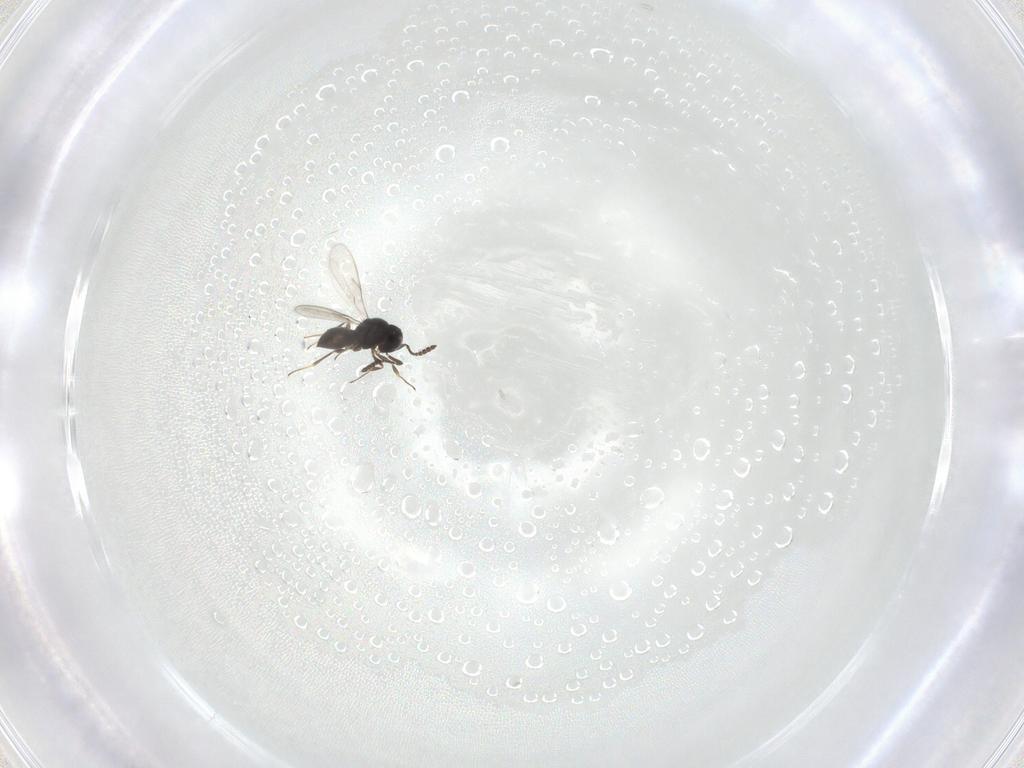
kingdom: Animalia
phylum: Arthropoda
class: Insecta
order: Hymenoptera
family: Scelionidae
